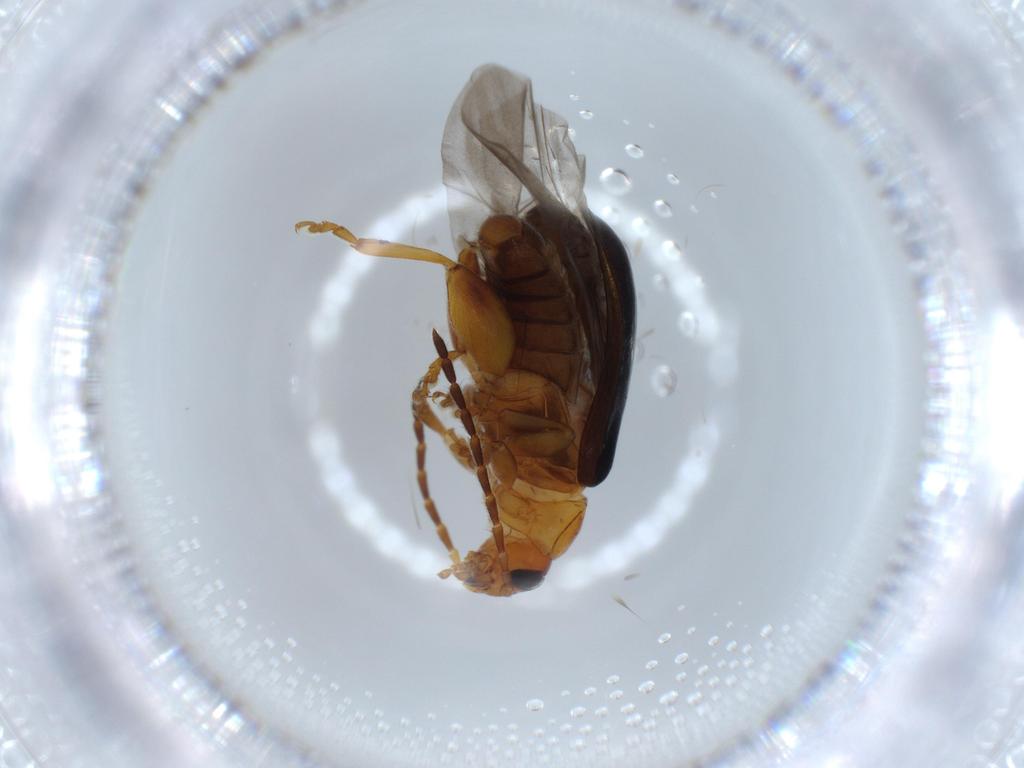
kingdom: Animalia
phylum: Arthropoda
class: Insecta
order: Coleoptera
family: Chrysomelidae
